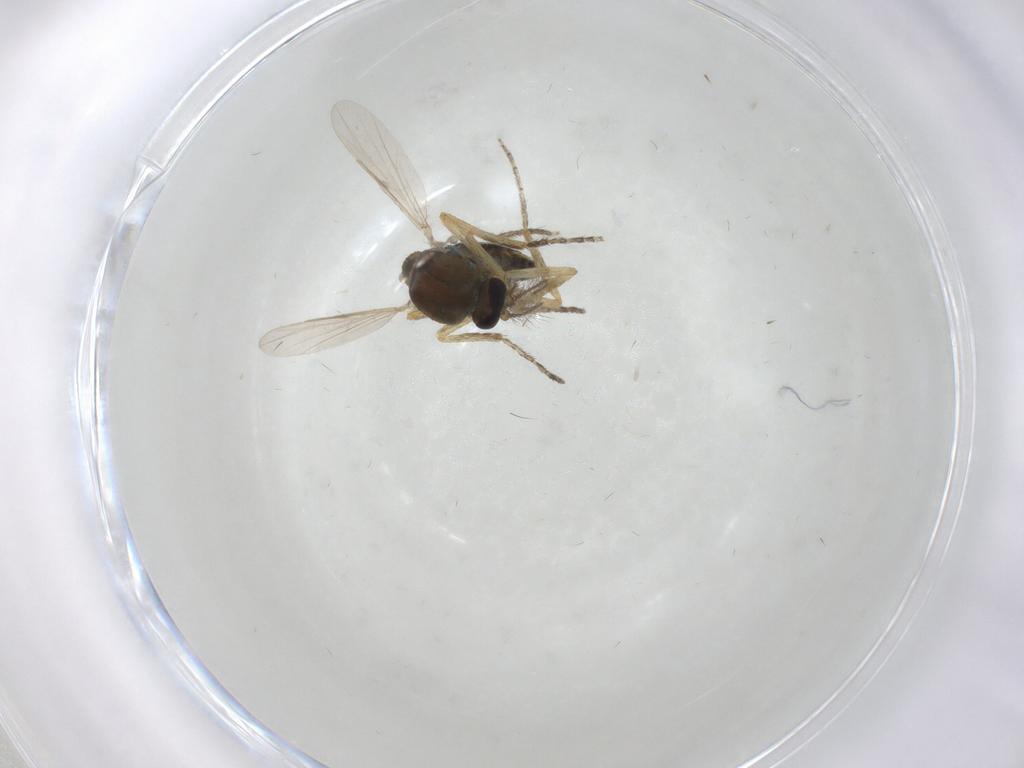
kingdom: Animalia
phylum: Arthropoda
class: Insecta
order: Diptera
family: Ceratopogonidae
